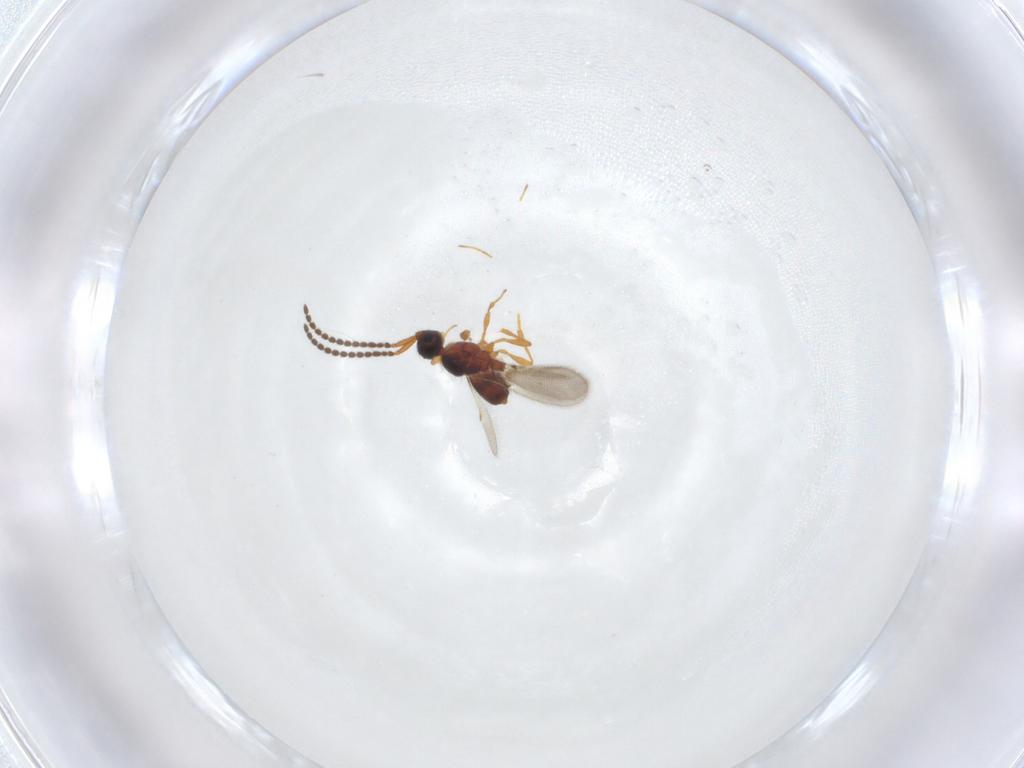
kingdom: Animalia
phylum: Arthropoda
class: Insecta
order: Hymenoptera
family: Diapriidae
